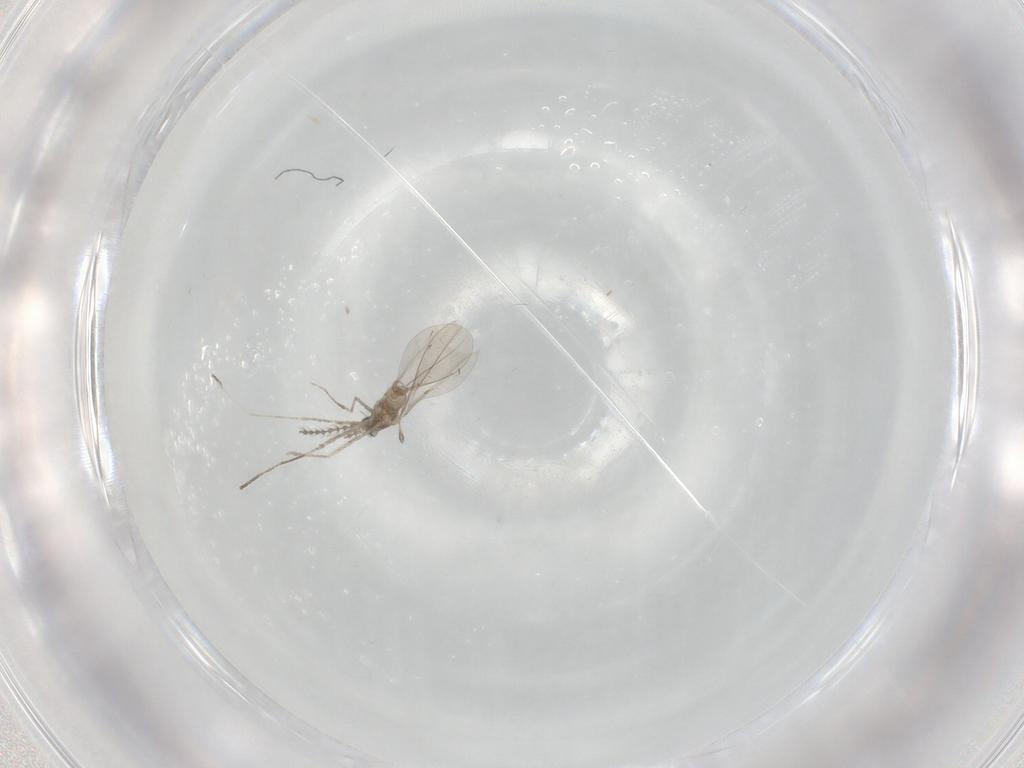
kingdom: Animalia
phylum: Arthropoda
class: Insecta
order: Diptera
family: Cecidomyiidae
